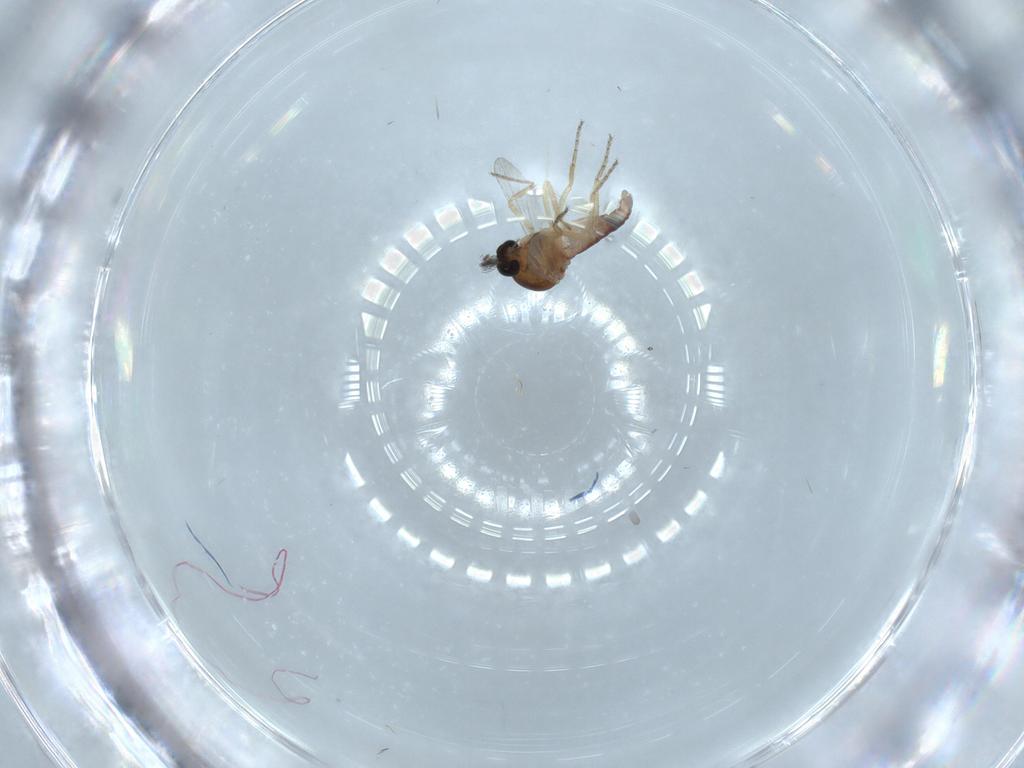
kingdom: Animalia
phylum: Arthropoda
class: Insecta
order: Diptera
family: Ceratopogonidae
